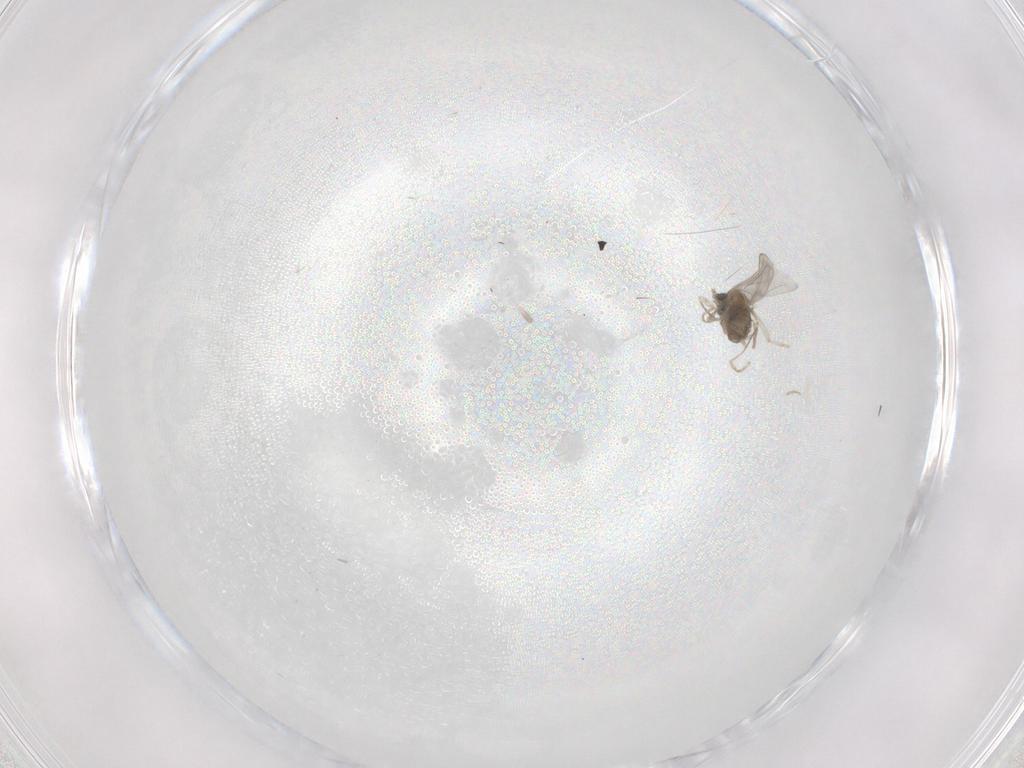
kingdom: Animalia
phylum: Arthropoda
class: Insecta
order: Diptera
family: Cecidomyiidae
